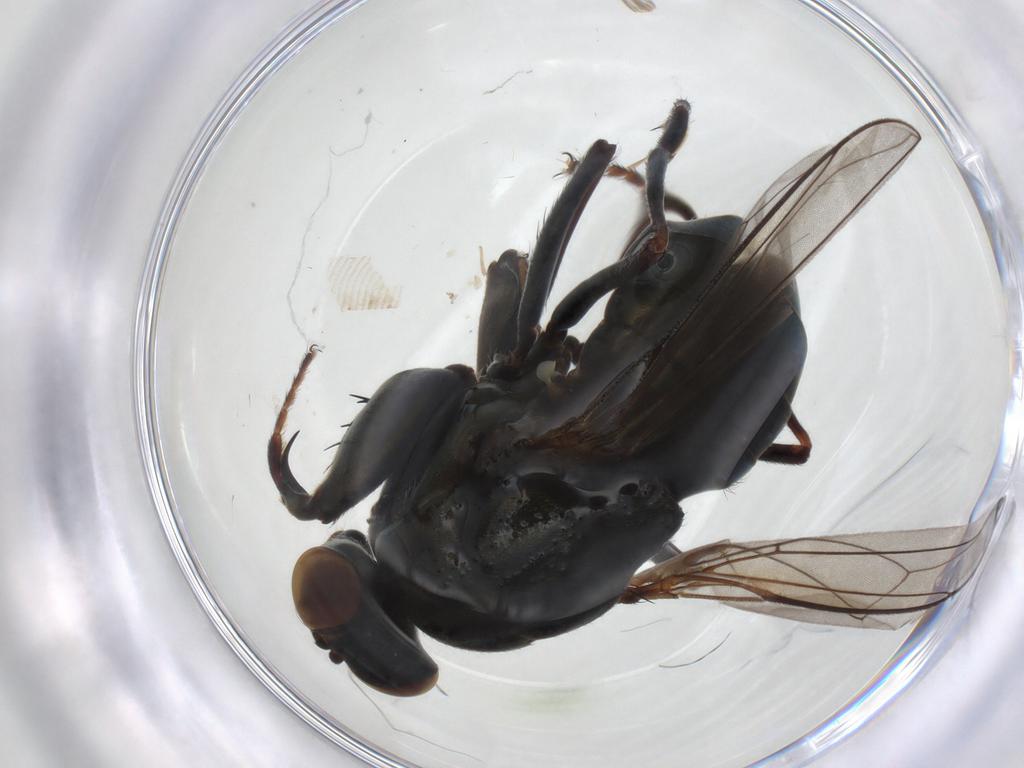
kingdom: Animalia
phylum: Arthropoda
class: Insecta
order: Diptera
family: Ephydridae
